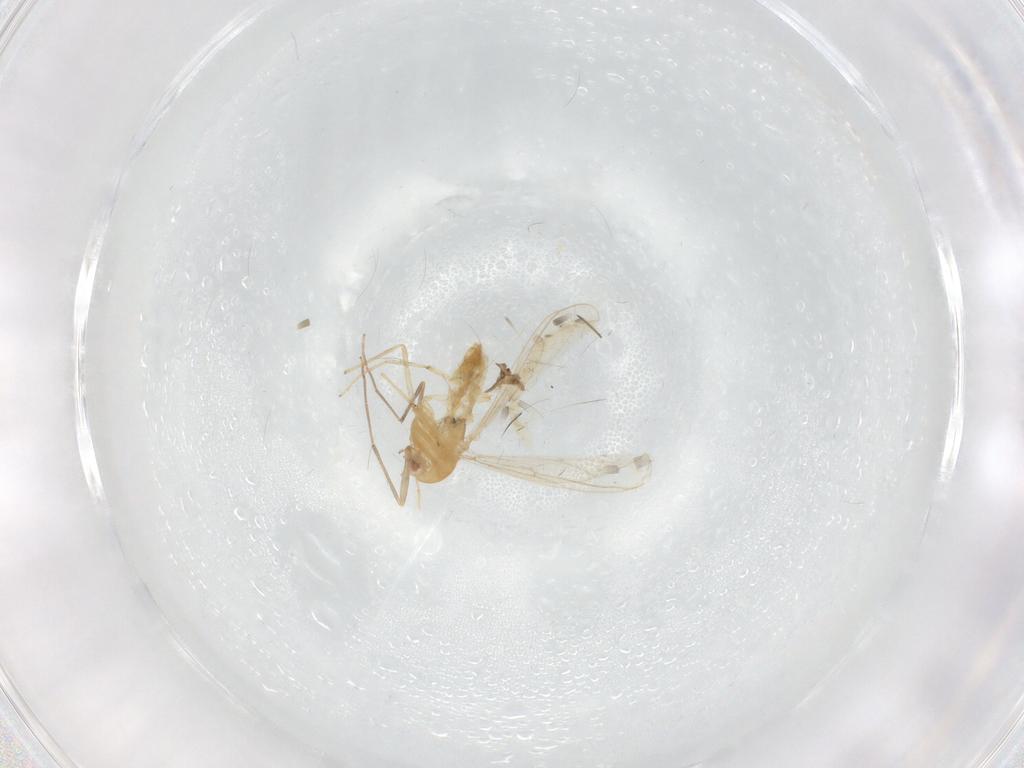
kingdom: Animalia
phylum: Arthropoda
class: Insecta
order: Diptera
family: Chironomidae
